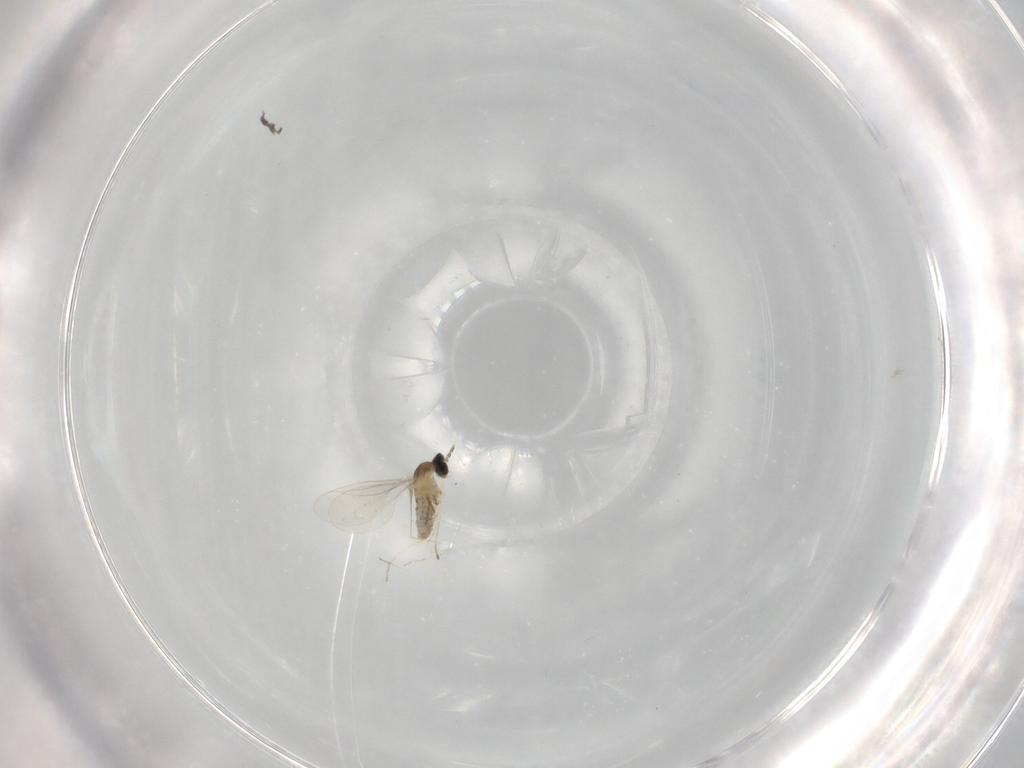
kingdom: Animalia
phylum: Arthropoda
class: Insecta
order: Diptera
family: Cecidomyiidae
